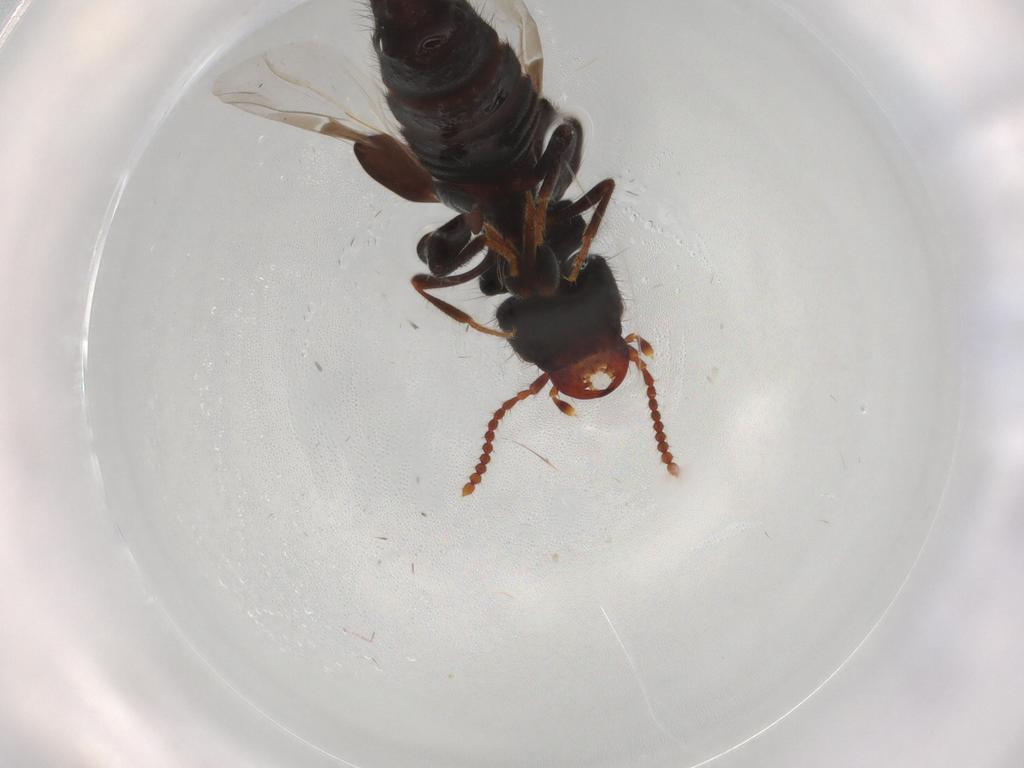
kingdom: Animalia
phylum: Arthropoda
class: Insecta
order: Coleoptera
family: Staphylinidae
